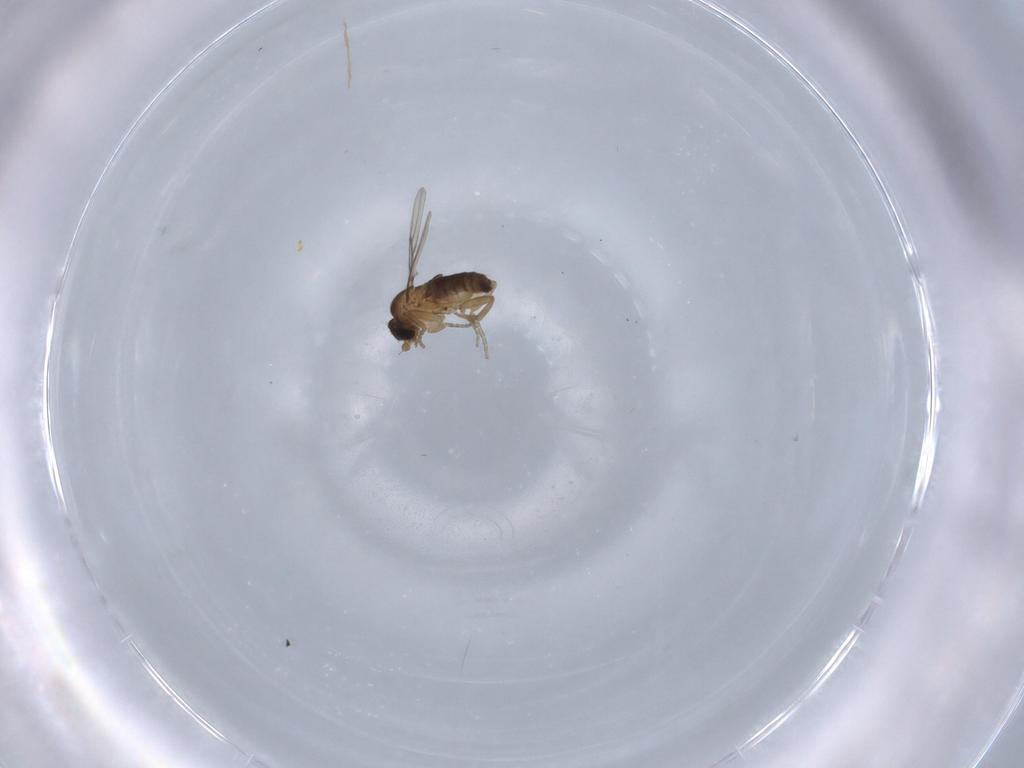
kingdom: Animalia
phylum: Arthropoda
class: Insecta
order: Diptera
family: Phoridae
